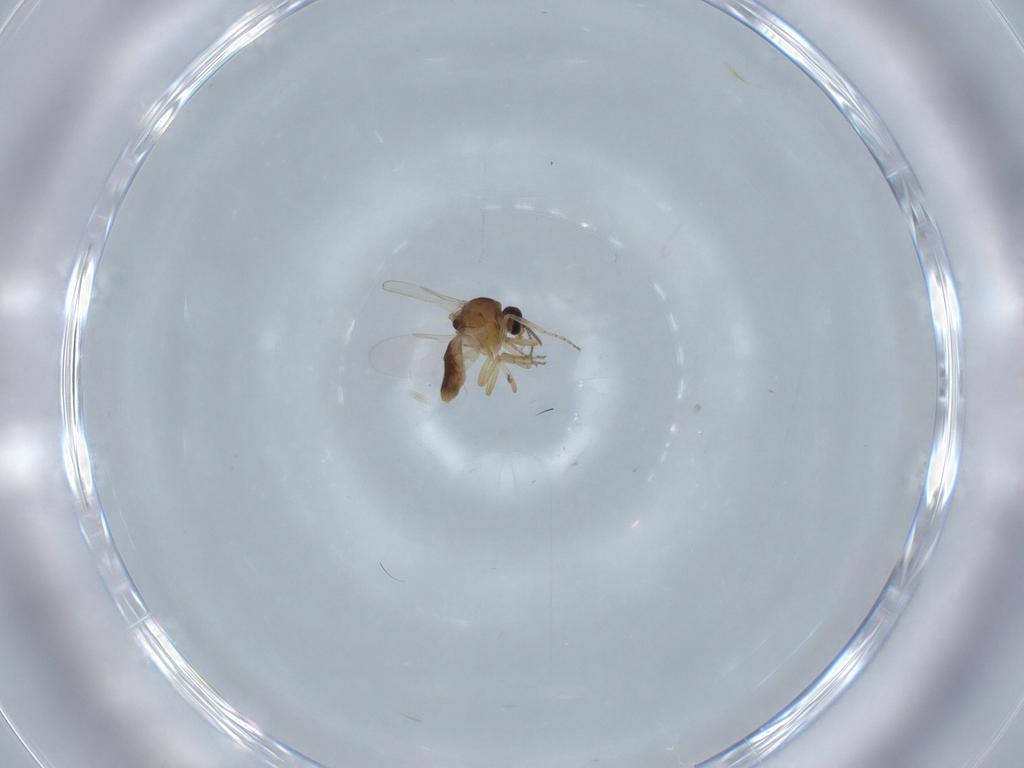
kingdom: Animalia
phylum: Arthropoda
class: Insecta
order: Diptera
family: Ceratopogonidae
